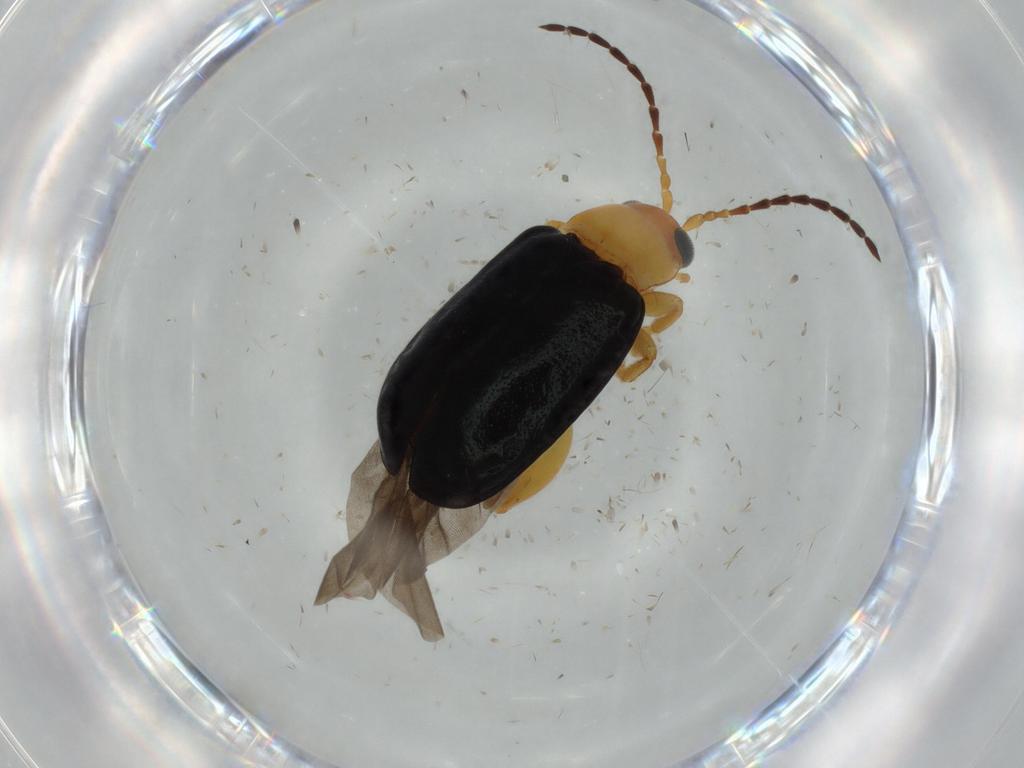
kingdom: Animalia
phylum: Arthropoda
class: Insecta
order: Coleoptera
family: Chrysomelidae
